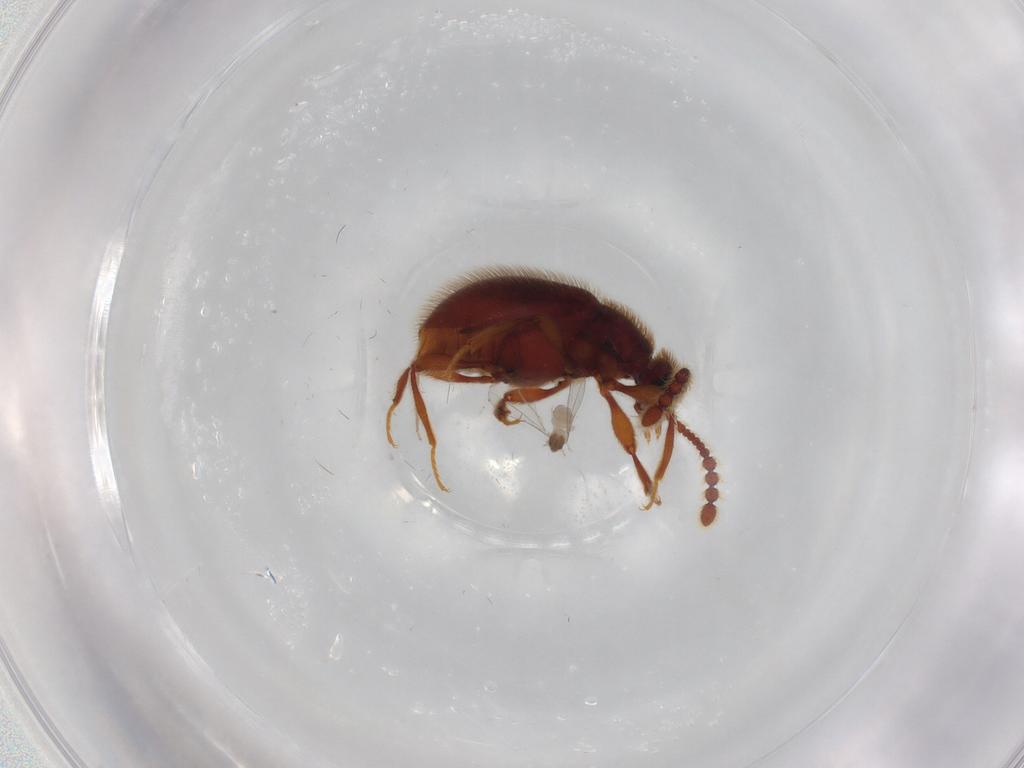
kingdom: Animalia
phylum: Arthropoda
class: Insecta
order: Diptera
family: Cecidomyiidae
